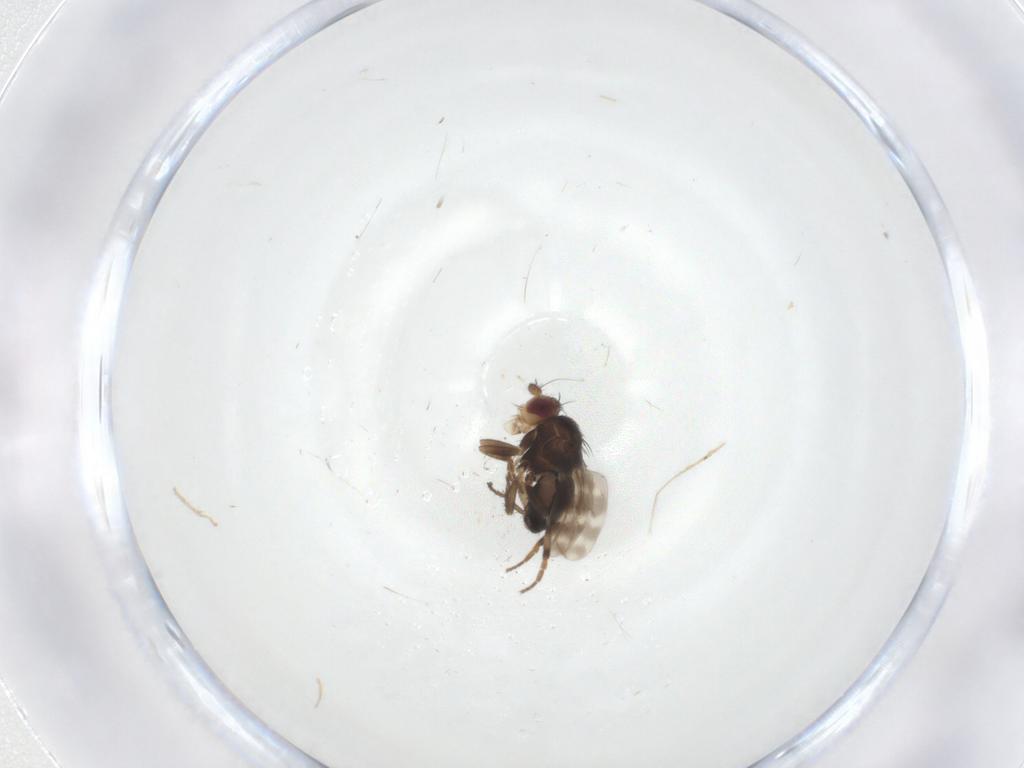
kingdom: Animalia
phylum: Arthropoda
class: Insecta
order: Diptera
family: Sphaeroceridae
